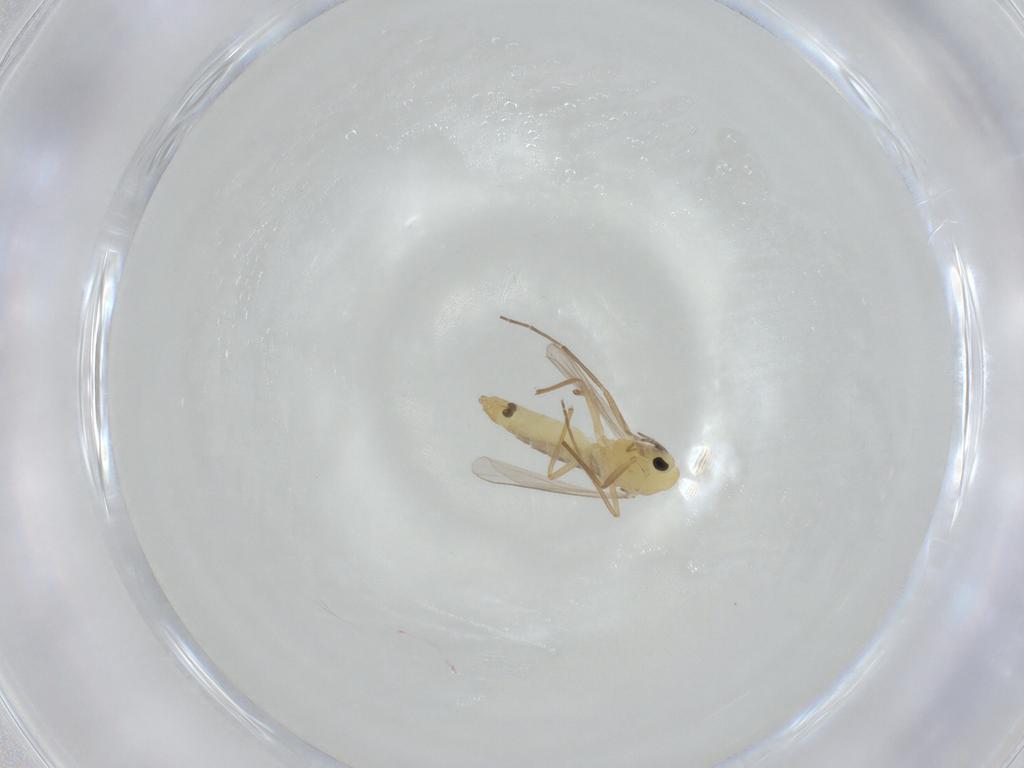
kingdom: Animalia
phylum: Arthropoda
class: Insecta
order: Diptera
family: Chironomidae
